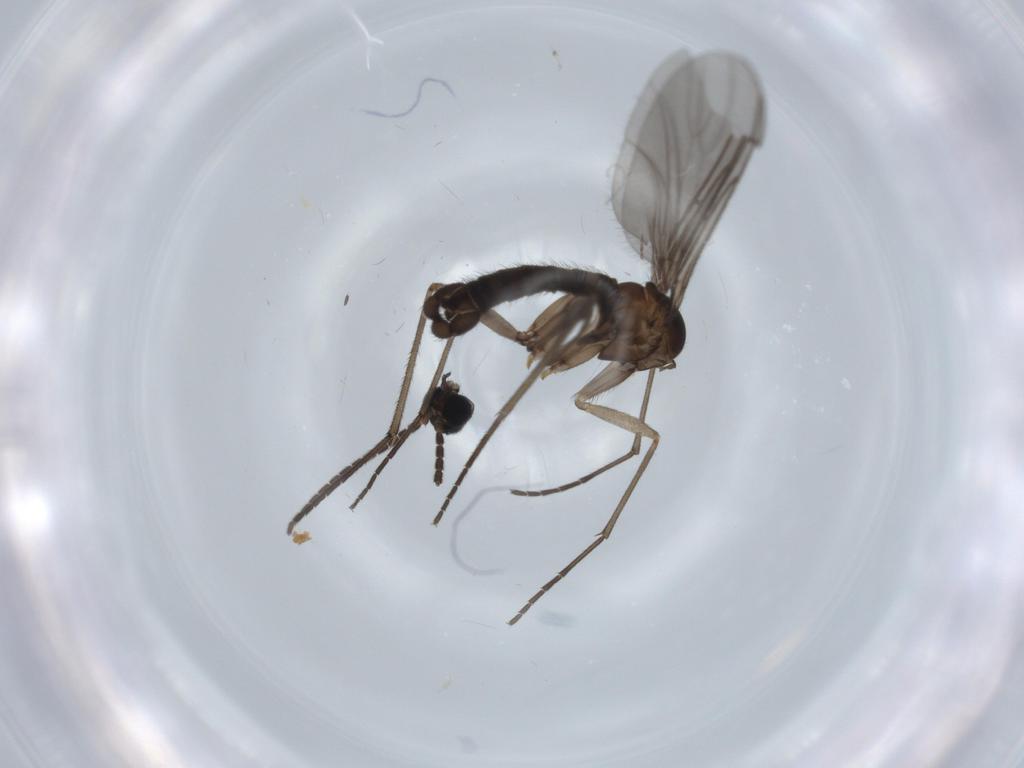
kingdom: Animalia
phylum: Arthropoda
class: Insecta
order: Diptera
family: Sciaridae
